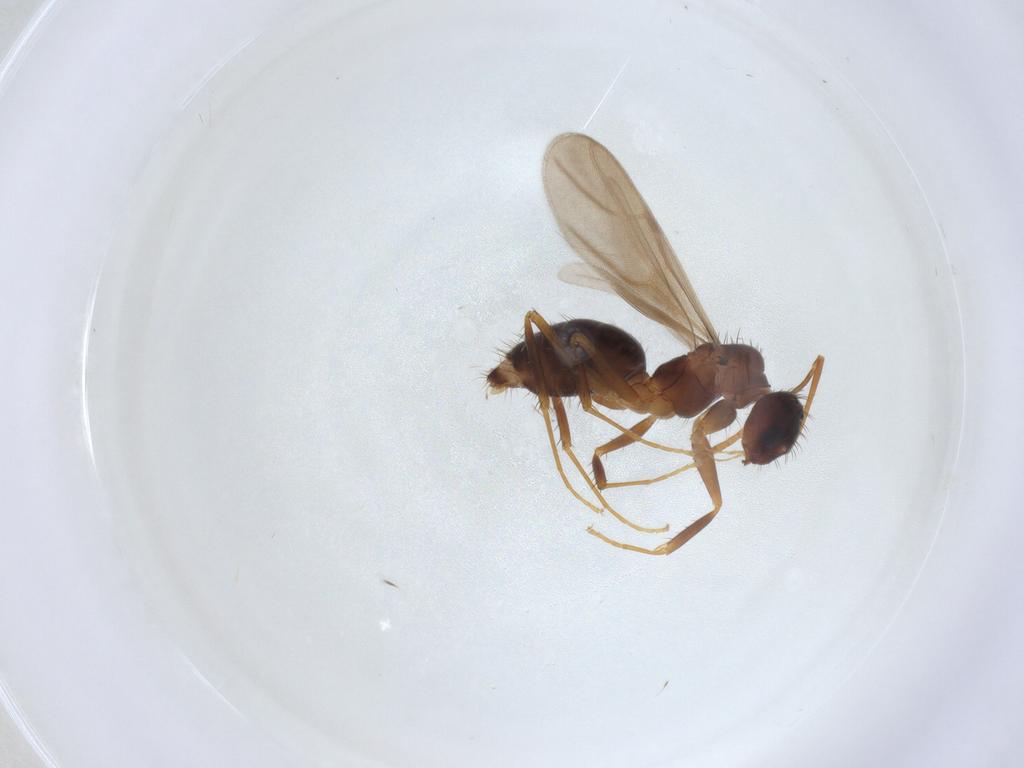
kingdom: Animalia
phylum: Arthropoda
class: Insecta
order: Hymenoptera
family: Formicidae
